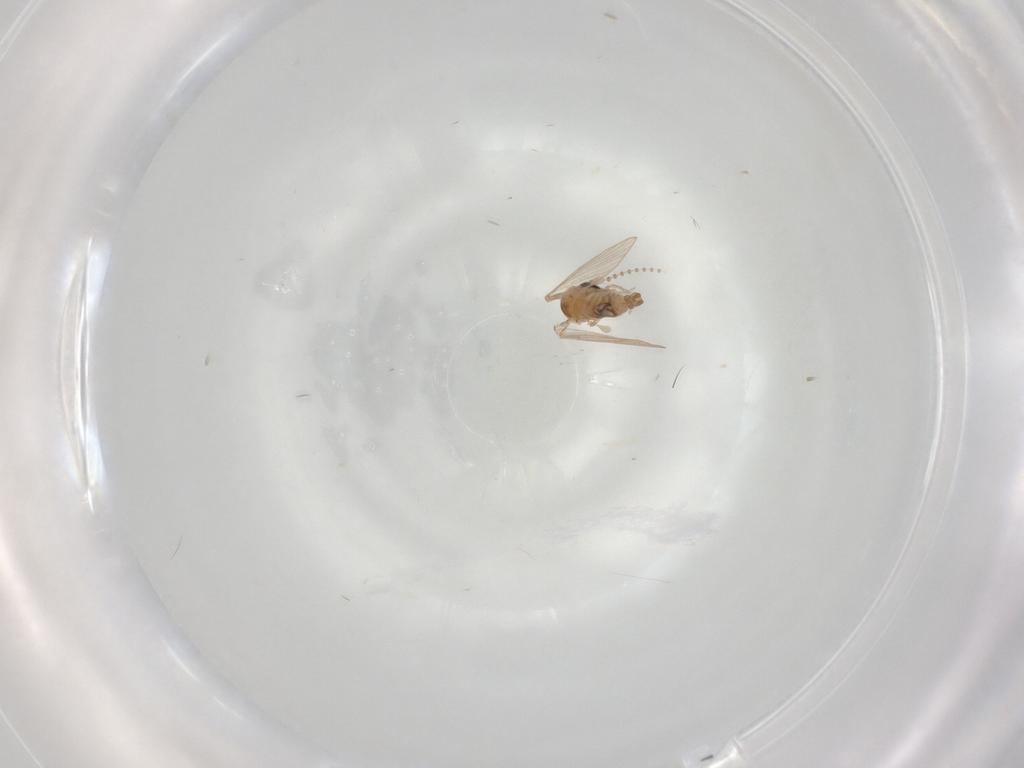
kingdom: Animalia
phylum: Arthropoda
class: Insecta
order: Diptera
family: Psychodidae
